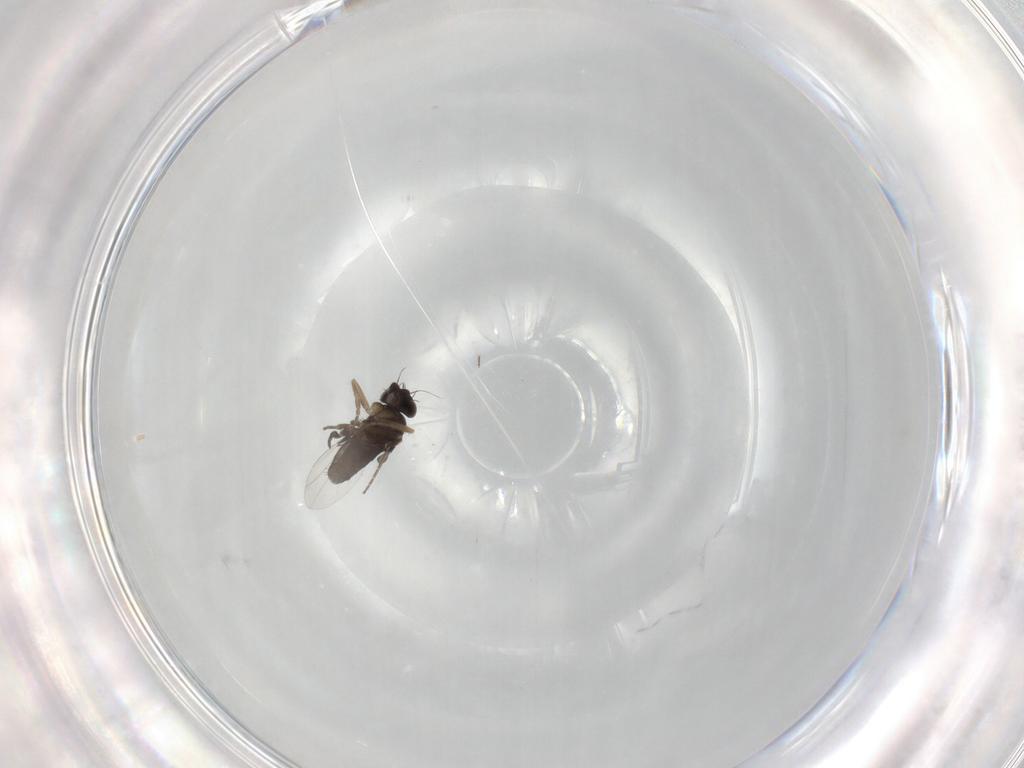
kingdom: Animalia
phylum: Arthropoda
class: Insecta
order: Diptera
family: Phoridae
